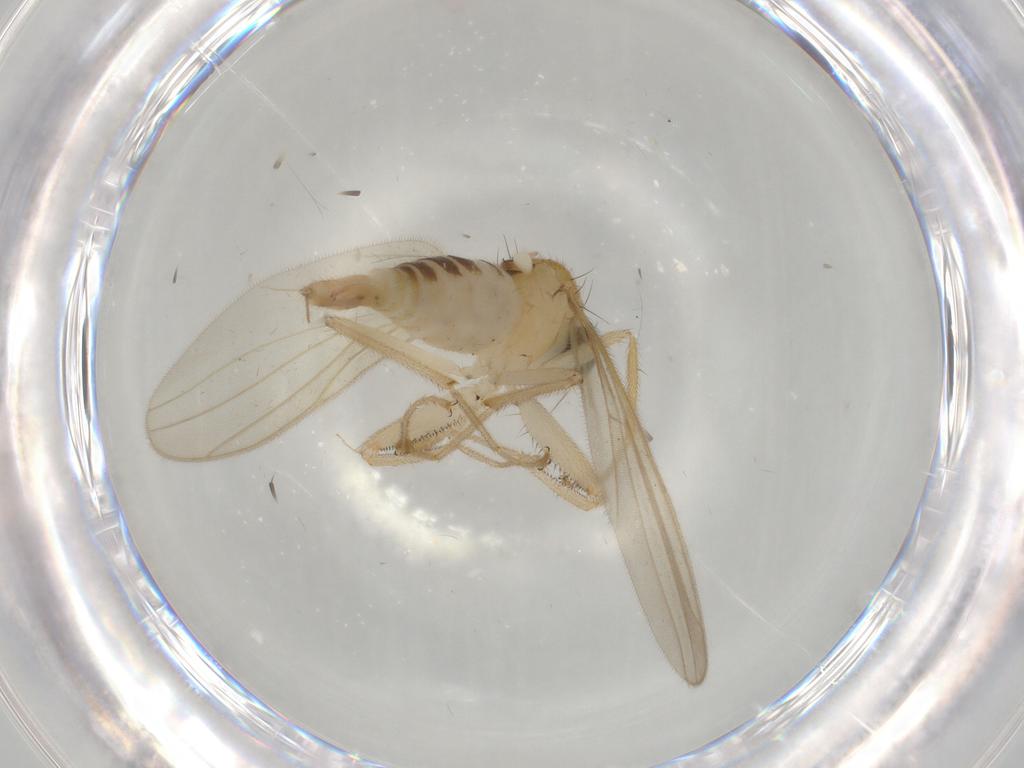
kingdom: Animalia
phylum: Arthropoda
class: Insecta
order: Diptera
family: Hybotidae
